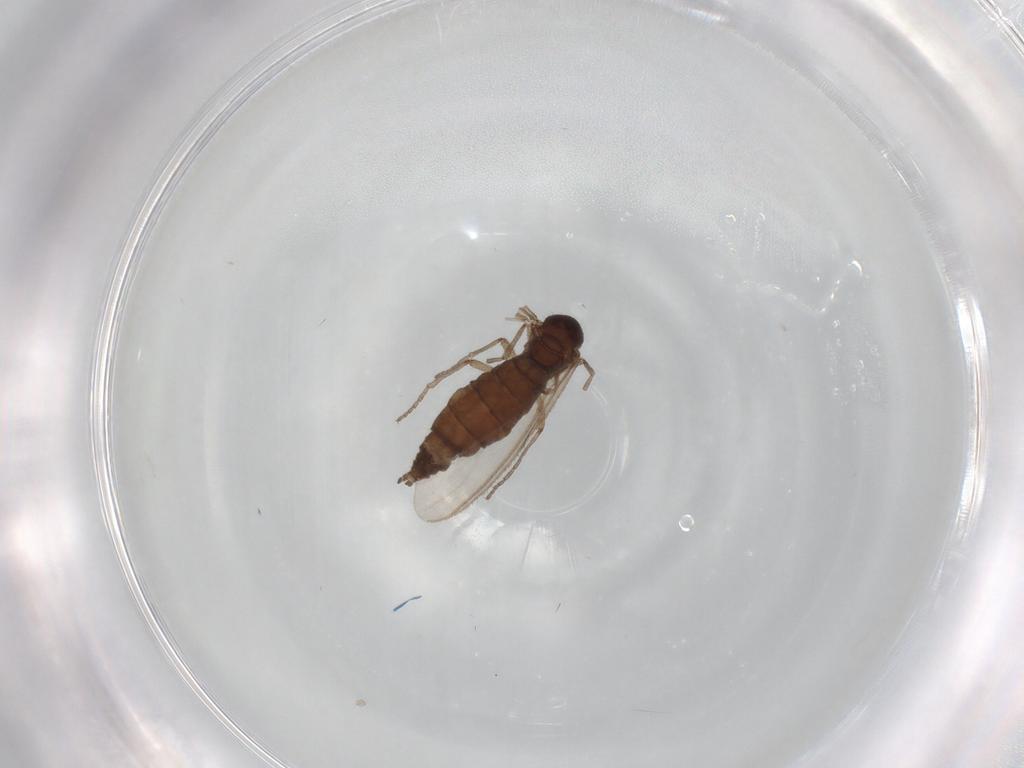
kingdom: Animalia
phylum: Arthropoda
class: Insecta
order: Diptera
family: Sciaridae
